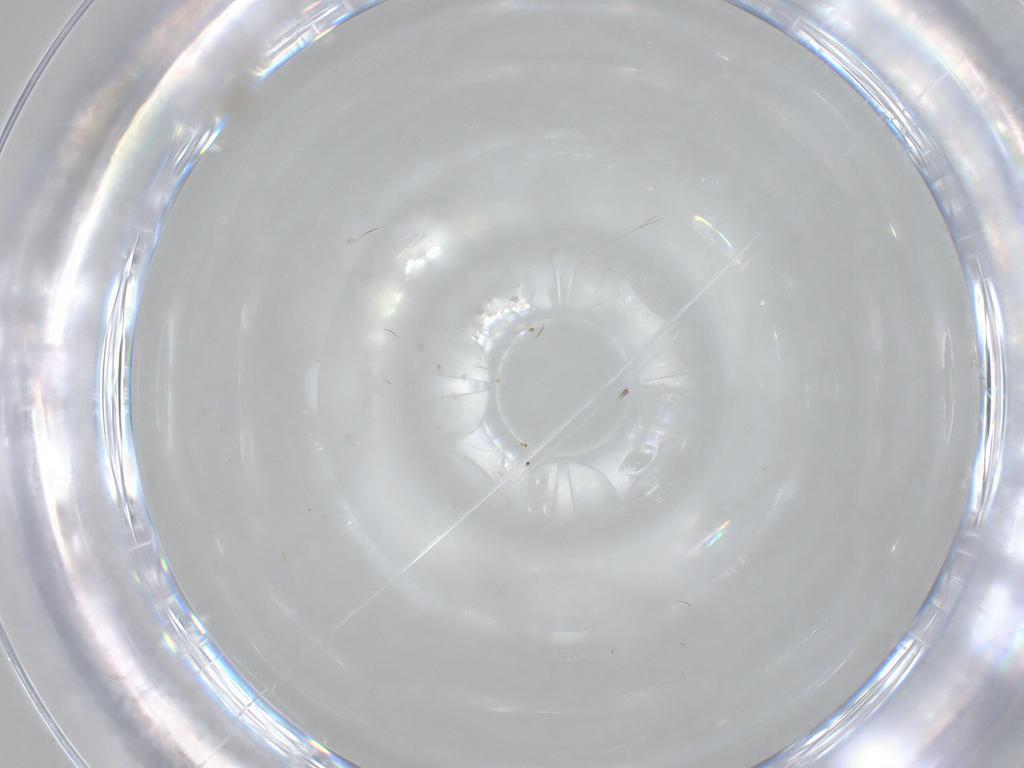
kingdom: Animalia
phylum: Arthropoda
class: Collembola
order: Entomobryomorpha
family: Entomobryidae
